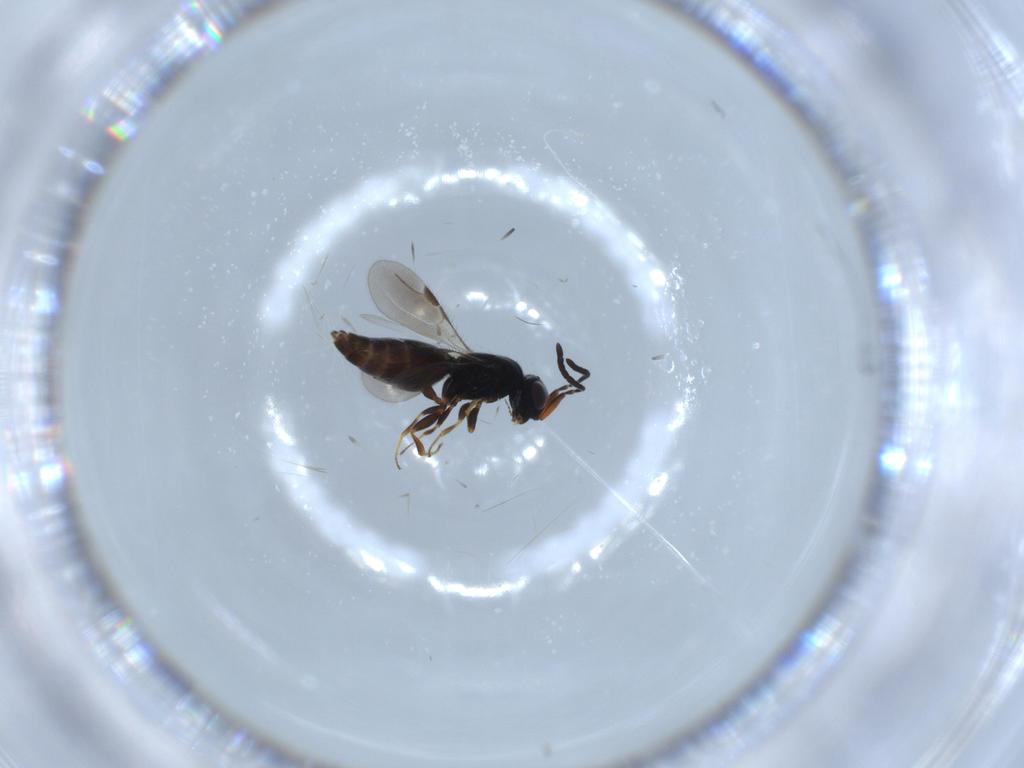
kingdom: Animalia
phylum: Arthropoda
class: Insecta
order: Hymenoptera
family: Megaspilidae
